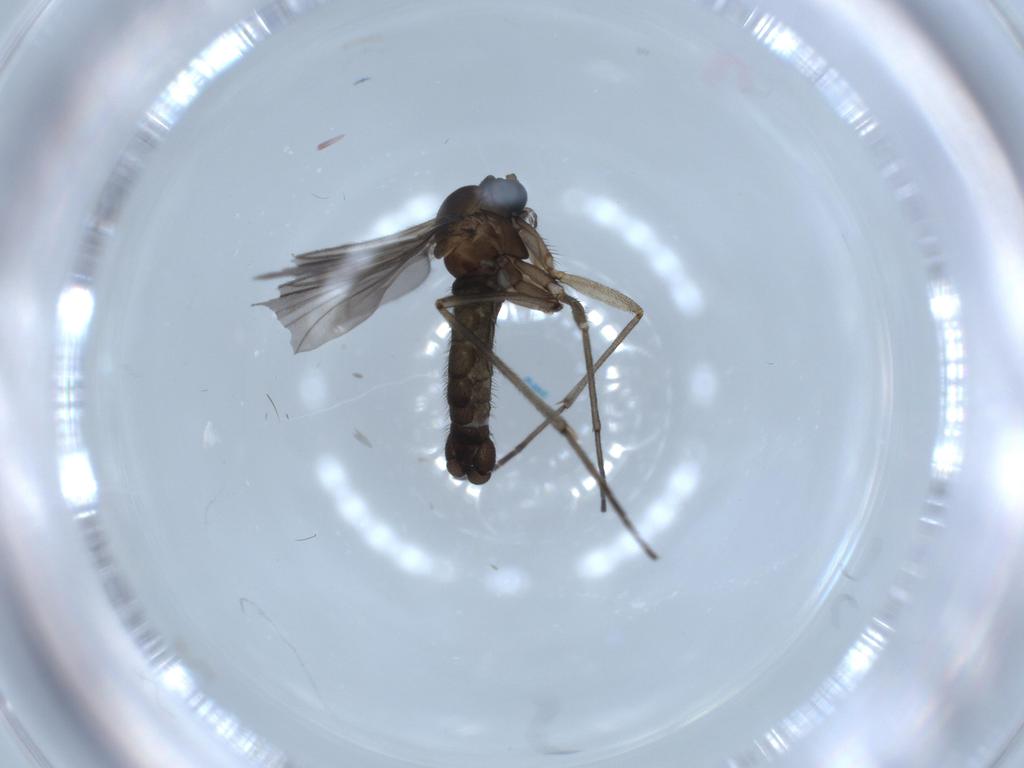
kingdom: Animalia
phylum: Arthropoda
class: Insecta
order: Diptera
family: Sciaridae
